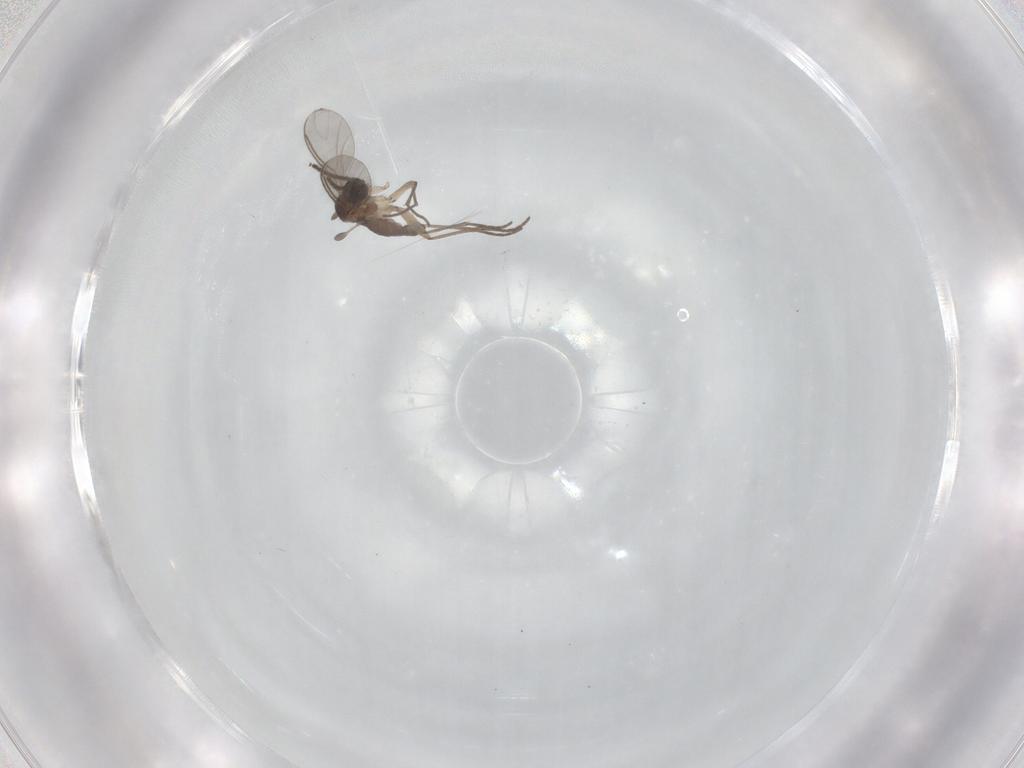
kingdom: Animalia
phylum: Arthropoda
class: Insecta
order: Diptera
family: Sciaridae
